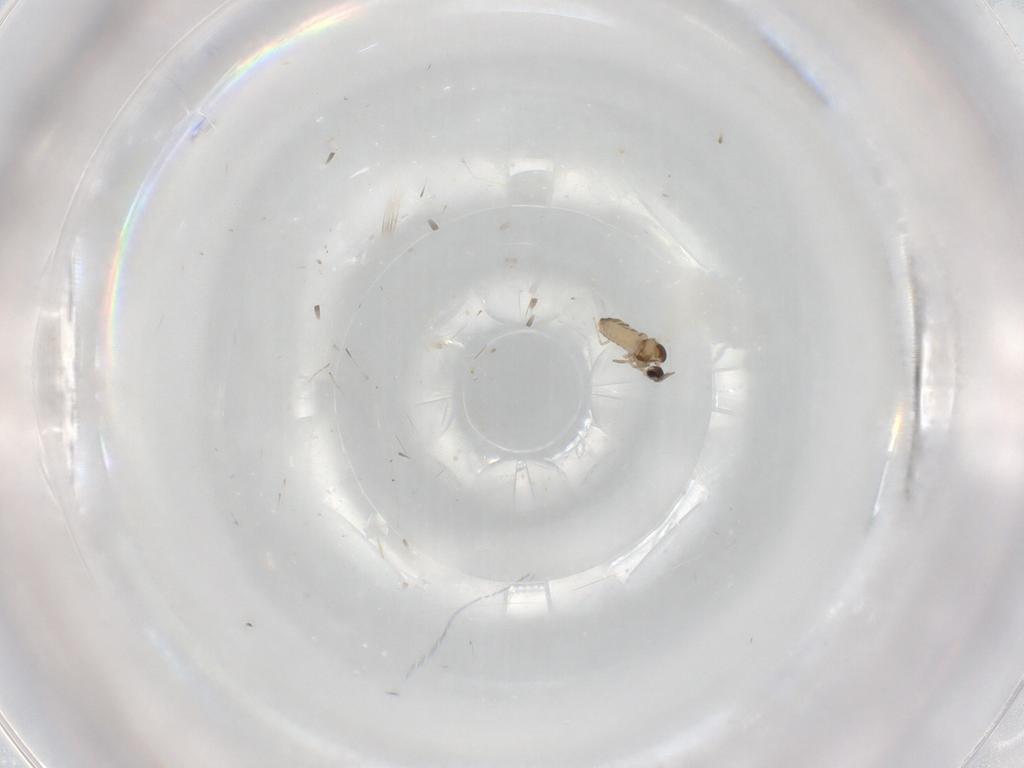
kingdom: Animalia
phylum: Arthropoda
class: Insecta
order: Diptera
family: Cecidomyiidae
